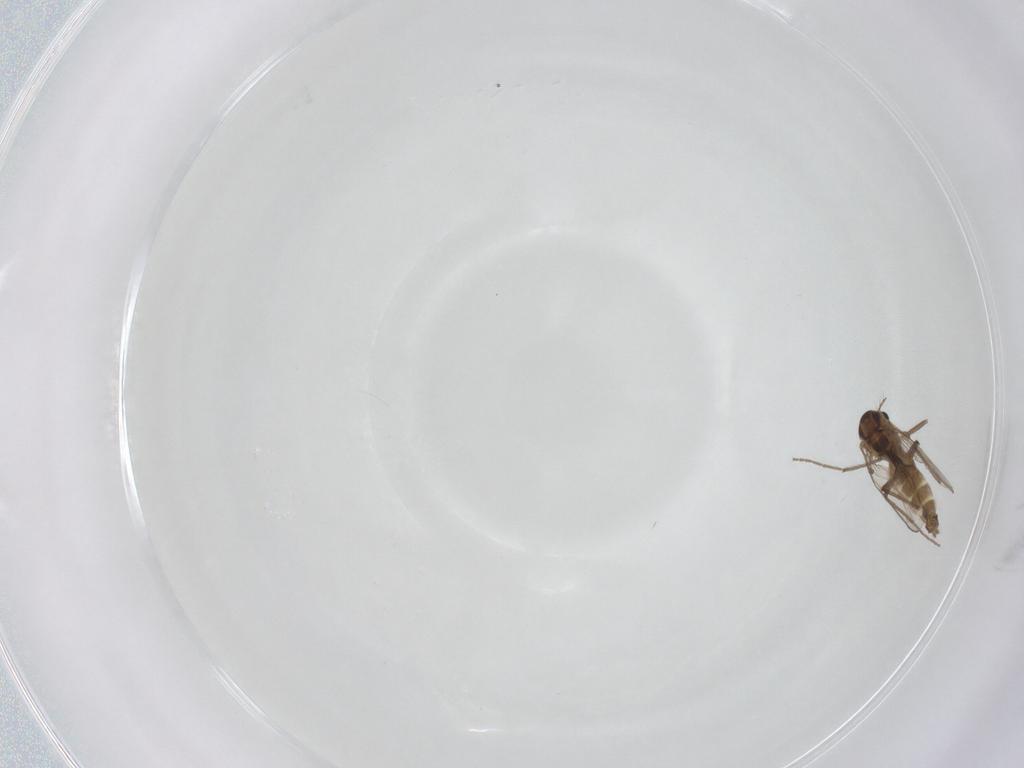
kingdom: Animalia
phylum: Arthropoda
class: Insecta
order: Diptera
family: Chironomidae
